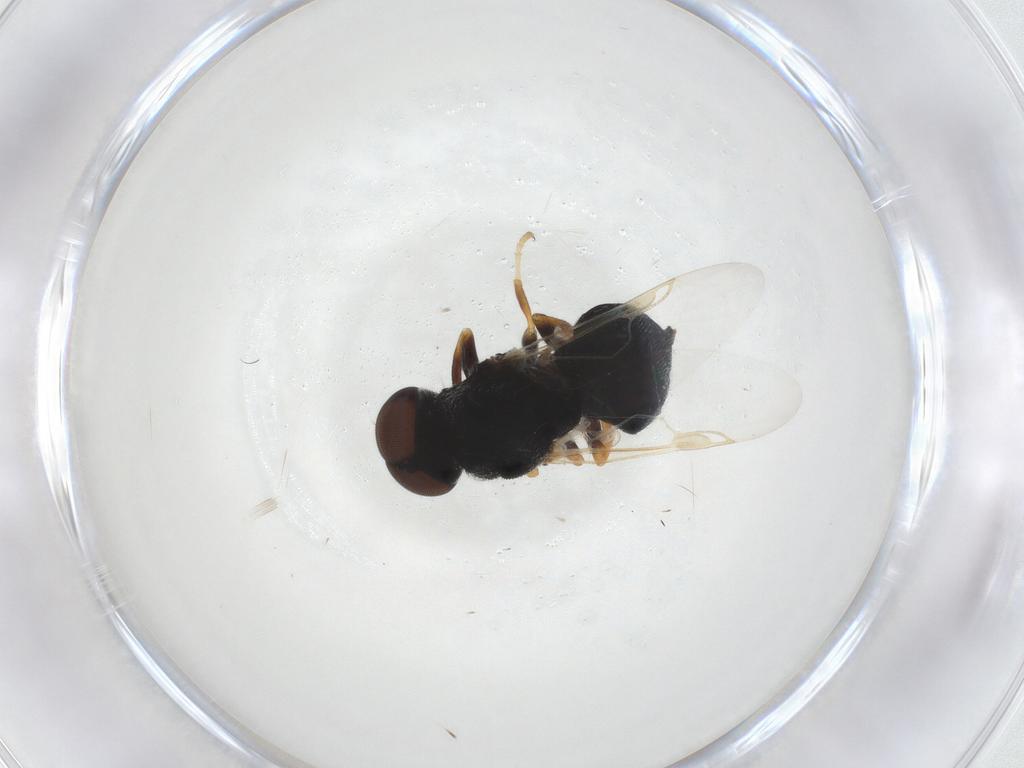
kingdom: Animalia
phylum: Arthropoda
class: Insecta
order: Diptera
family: Stratiomyidae
